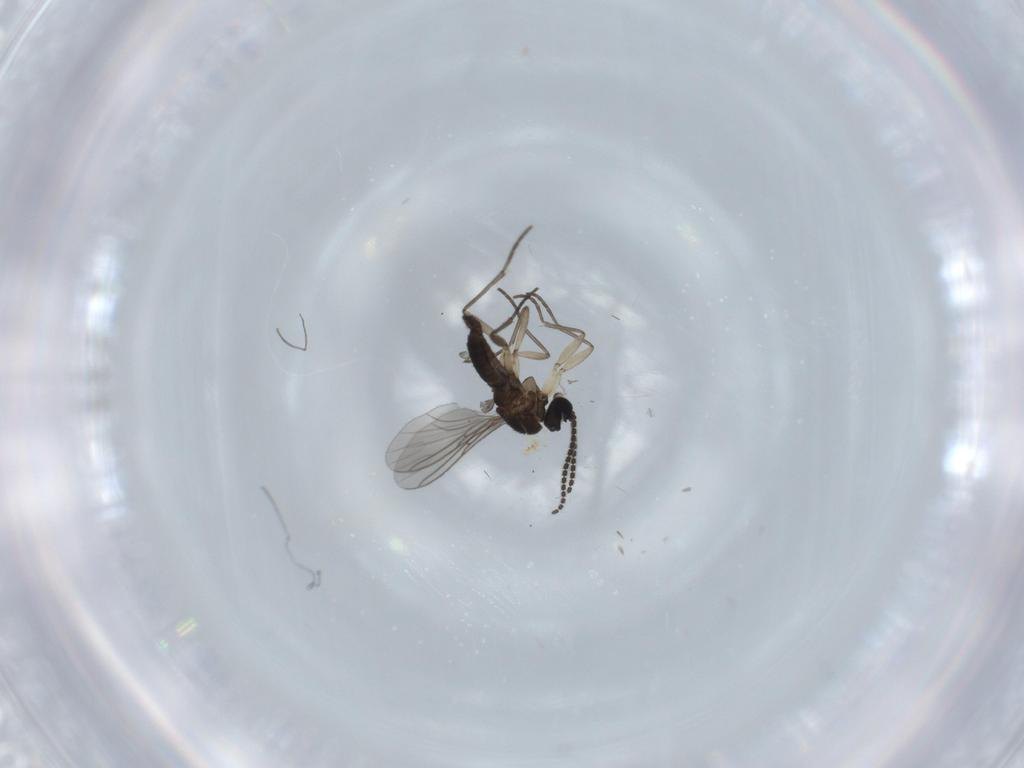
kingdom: Animalia
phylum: Arthropoda
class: Insecta
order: Diptera
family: Sciaridae
